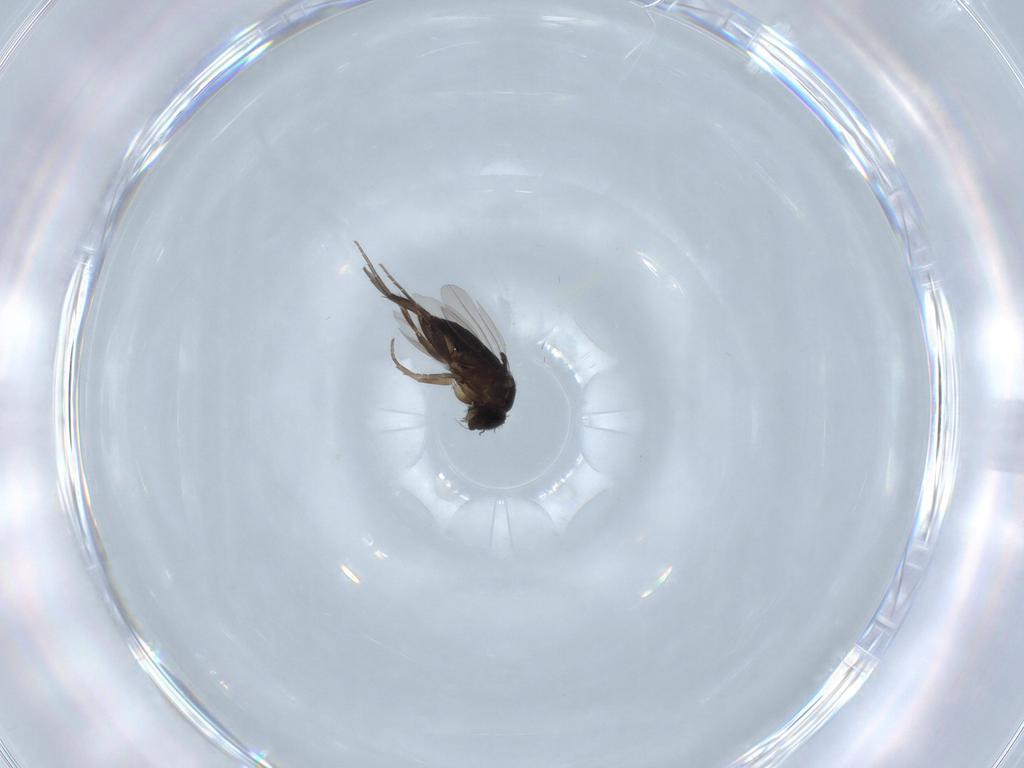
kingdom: Animalia
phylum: Arthropoda
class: Insecta
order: Diptera
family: Phoridae
